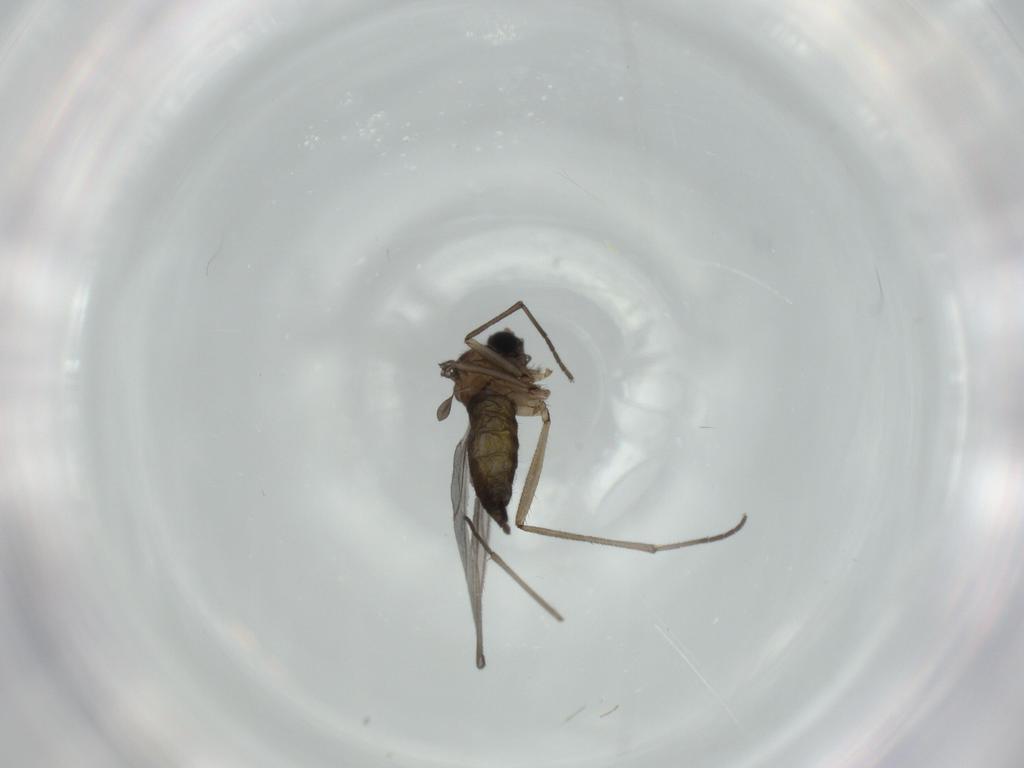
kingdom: Animalia
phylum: Arthropoda
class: Insecta
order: Diptera
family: Sciaridae
